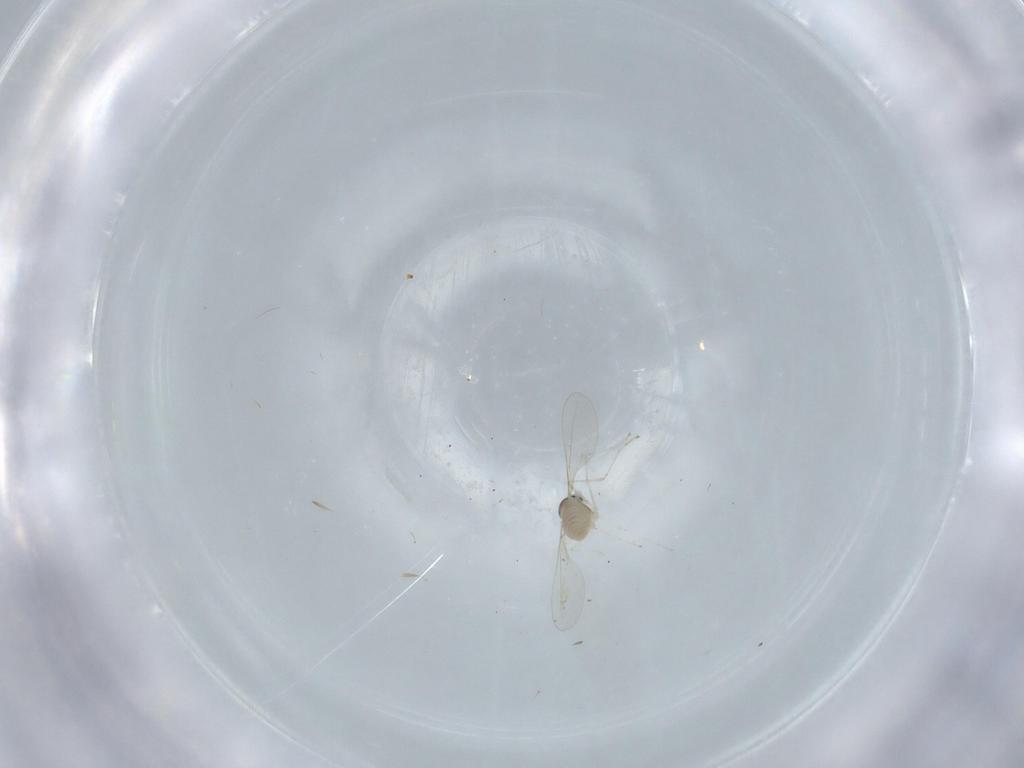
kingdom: Animalia
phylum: Arthropoda
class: Insecta
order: Diptera
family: Cecidomyiidae
